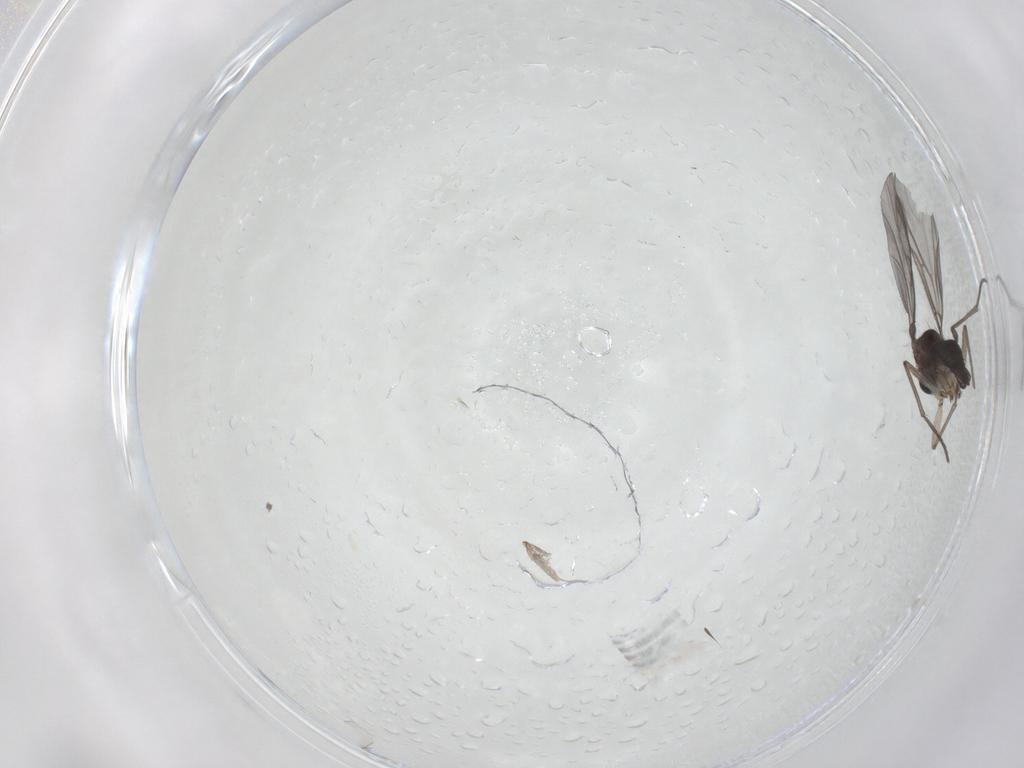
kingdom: Animalia
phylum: Arthropoda
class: Insecta
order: Diptera
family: Sciaridae
